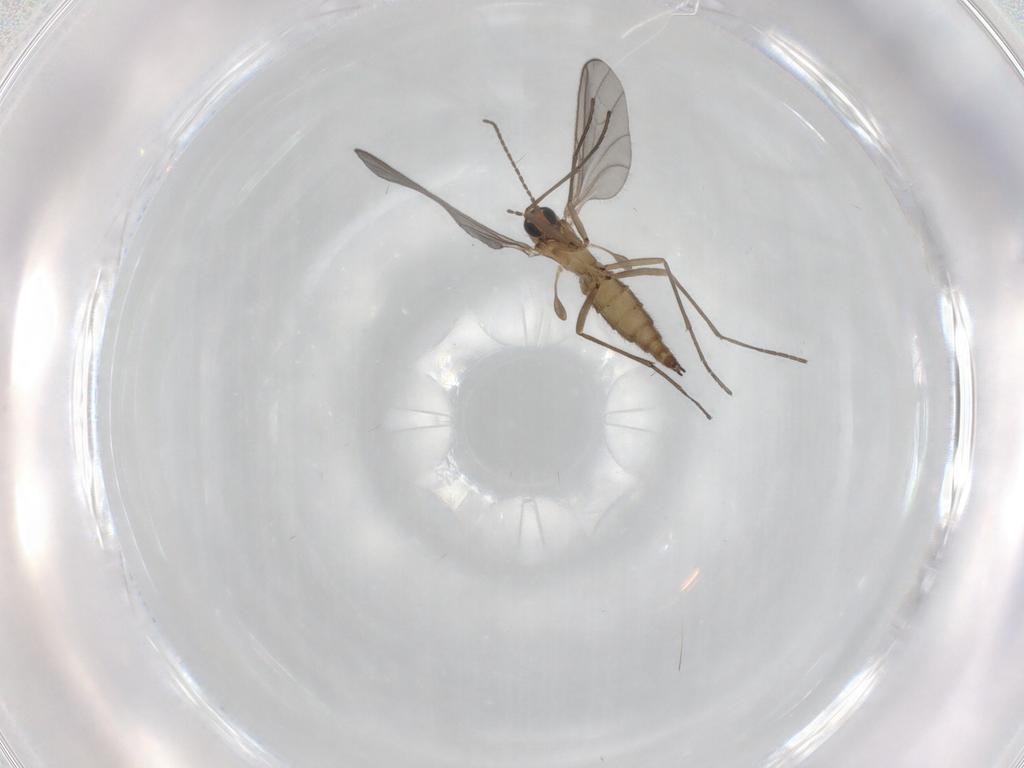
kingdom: Animalia
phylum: Arthropoda
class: Insecta
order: Diptera
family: Sciaridae
